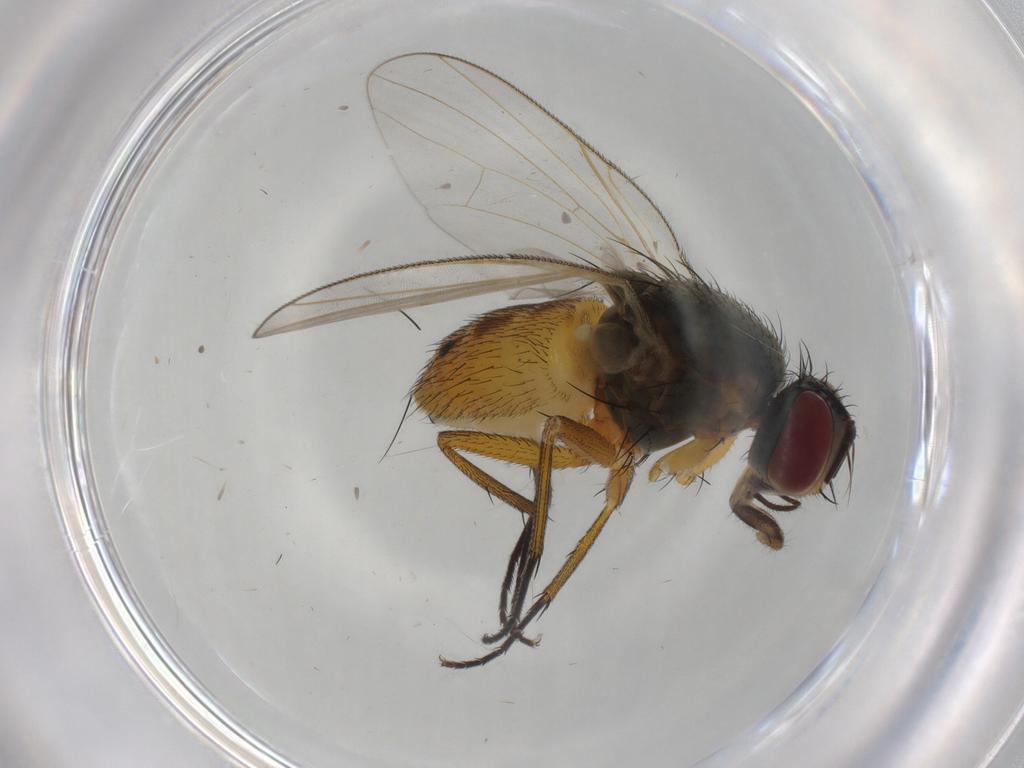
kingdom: Animalia
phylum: Arthropoda
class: Insecta
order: Diptera
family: Muscidae
